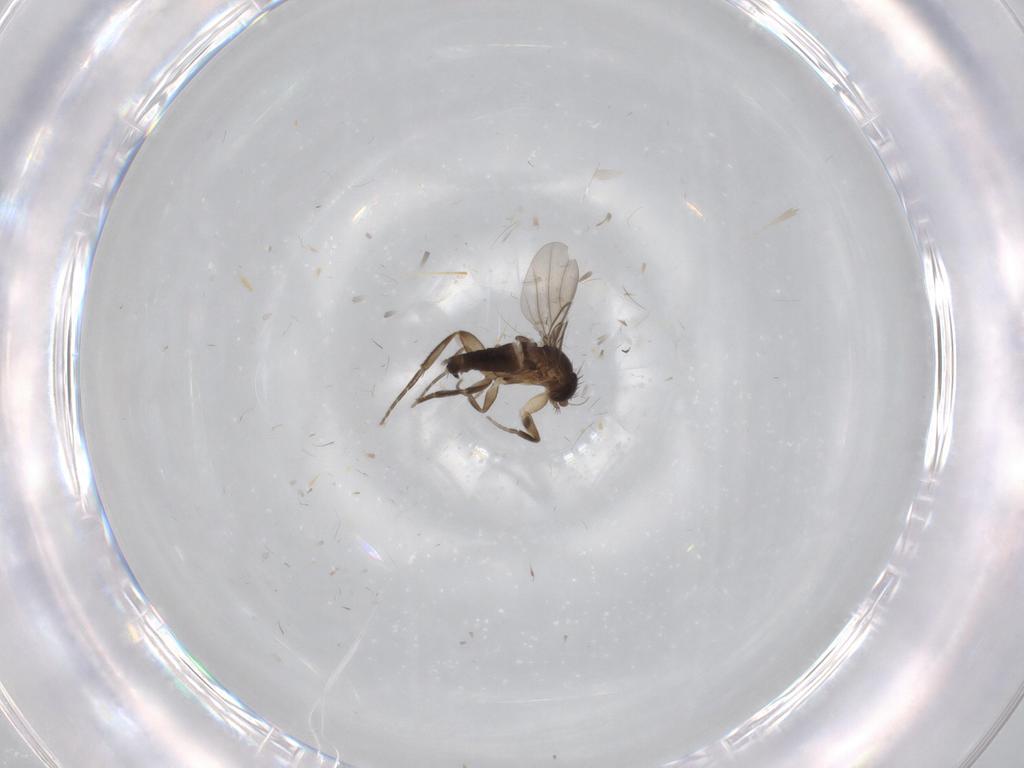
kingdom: Animalia
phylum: Arthropoda
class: Insecta
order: Diptera
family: Phoridae
